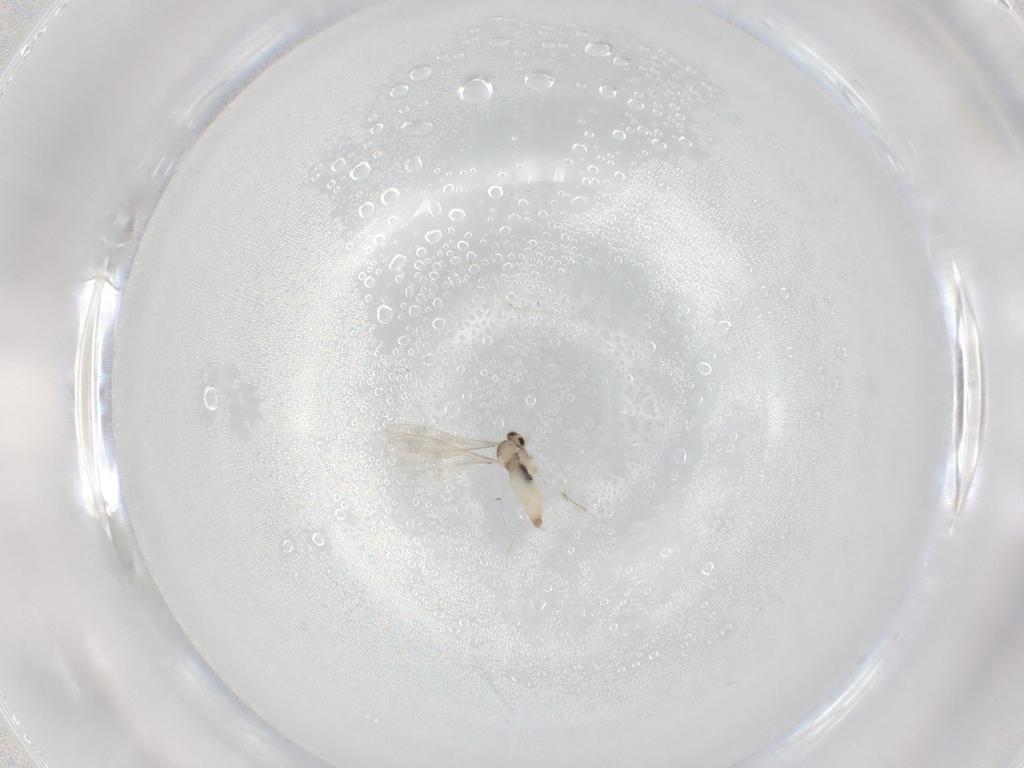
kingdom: Animalia
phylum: Arthropoda
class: Insecta
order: Diptera
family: Cecidomyiidae
